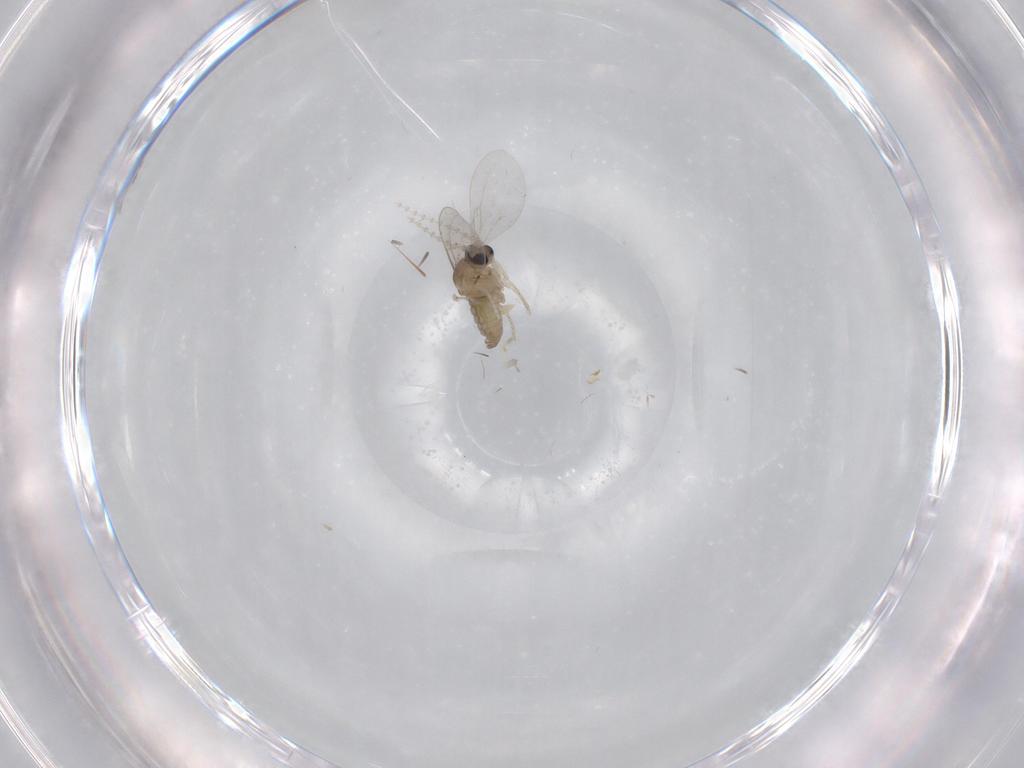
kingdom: Animalia
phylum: Arthropoda
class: Insecta
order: Diptera
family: Cecidomyiidae
